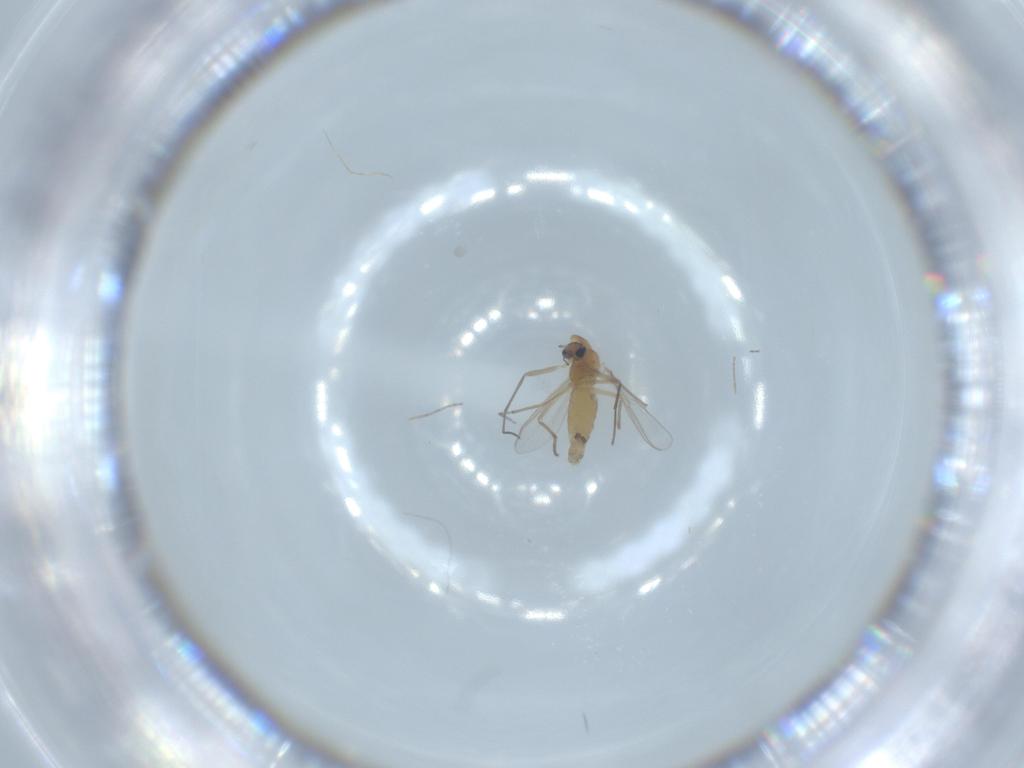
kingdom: Animalia
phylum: Arthropoda
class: Insecta
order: Diptera
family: Chironomidae
